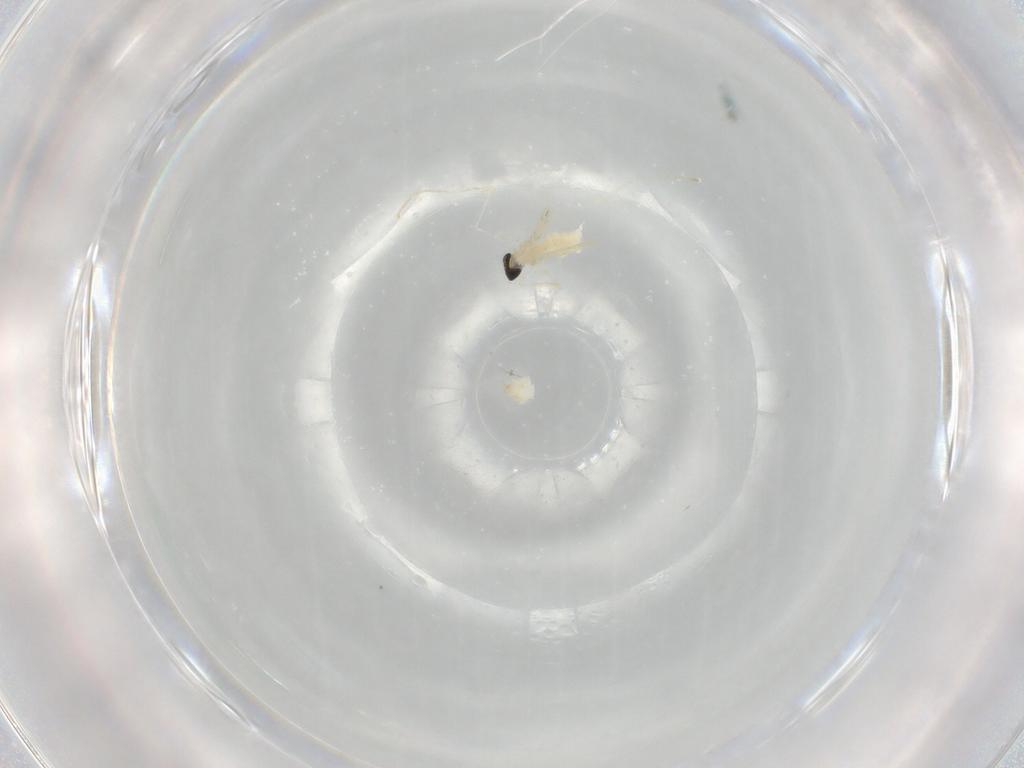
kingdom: Animalia
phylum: Arthropoda
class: Insecta
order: Diptera
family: Cecidomyiidae
